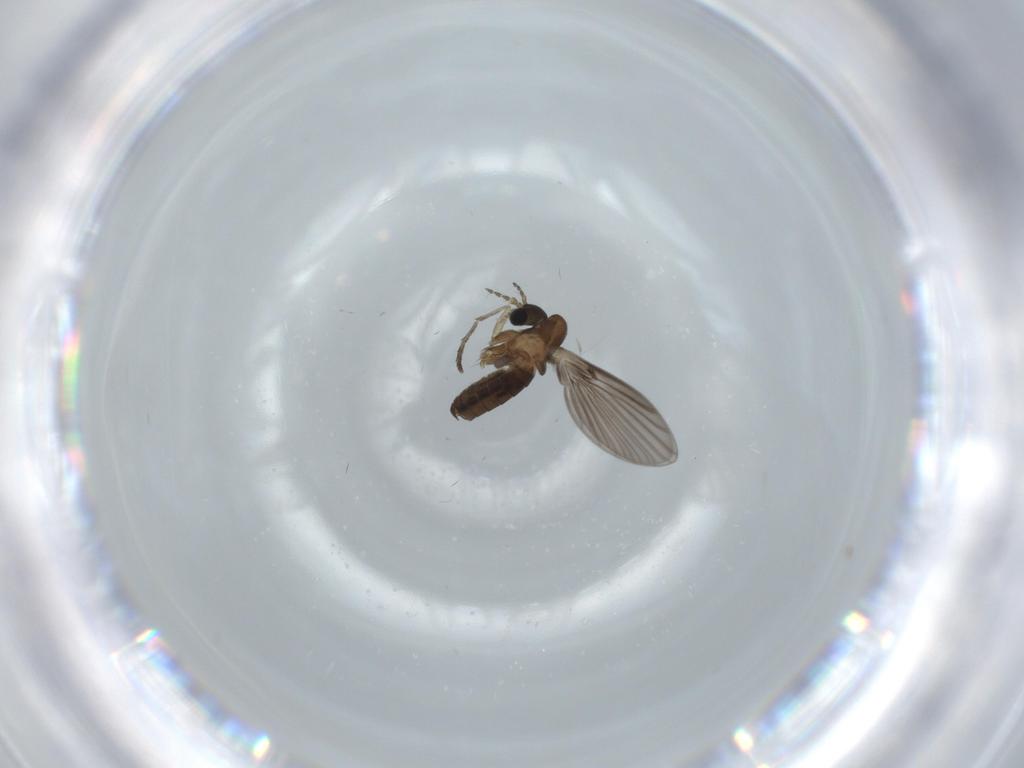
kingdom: Animalia
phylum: Arthropoda
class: Insecta
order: Diptera
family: Psychodidae
